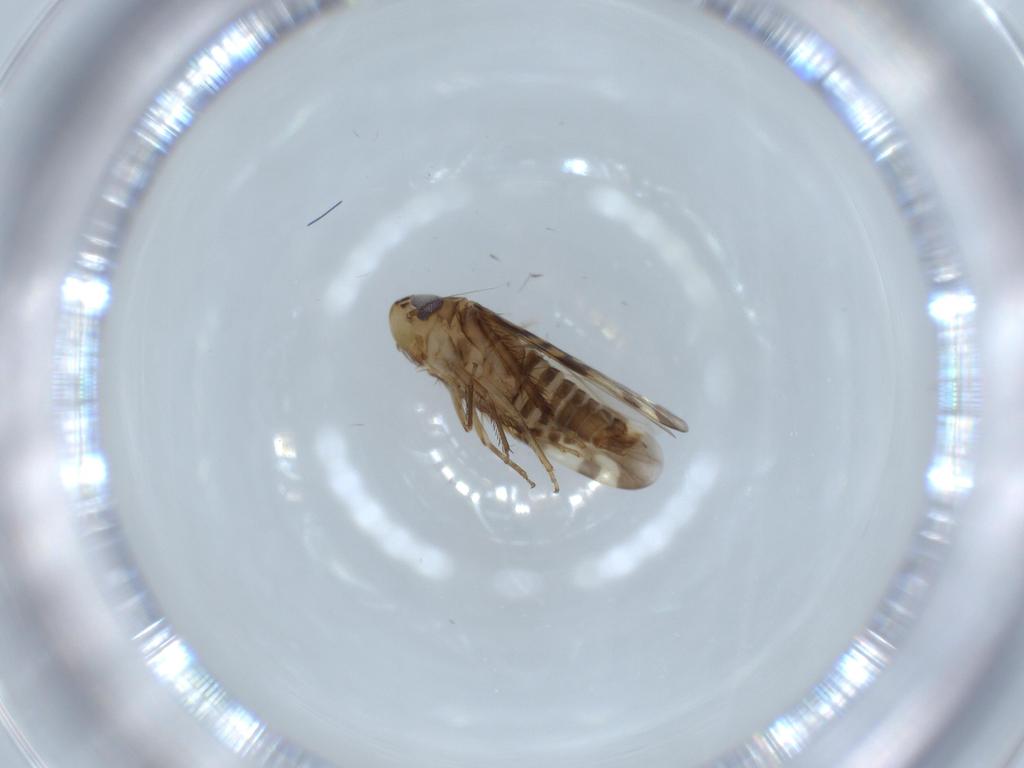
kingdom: Animalia
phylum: Arthropoda
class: Insecta
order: Hemiptera
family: Cicadellidae
